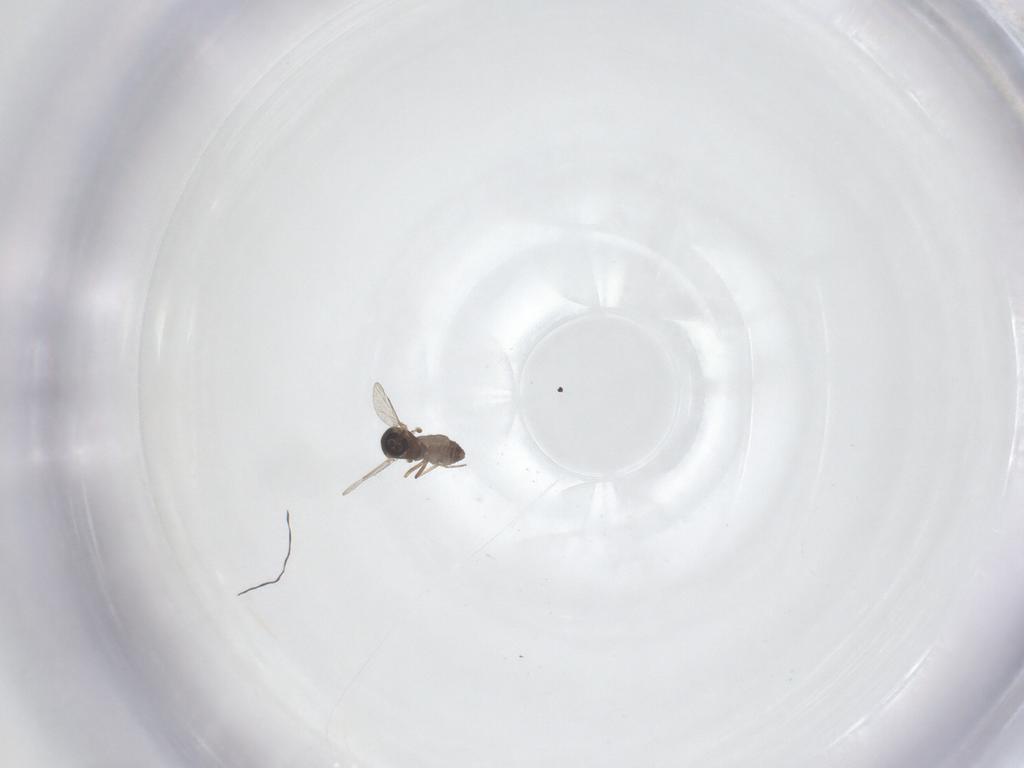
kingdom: Animalia
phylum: Arthropoda
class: Insecta
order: Diptera
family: Ceratopogonidae
